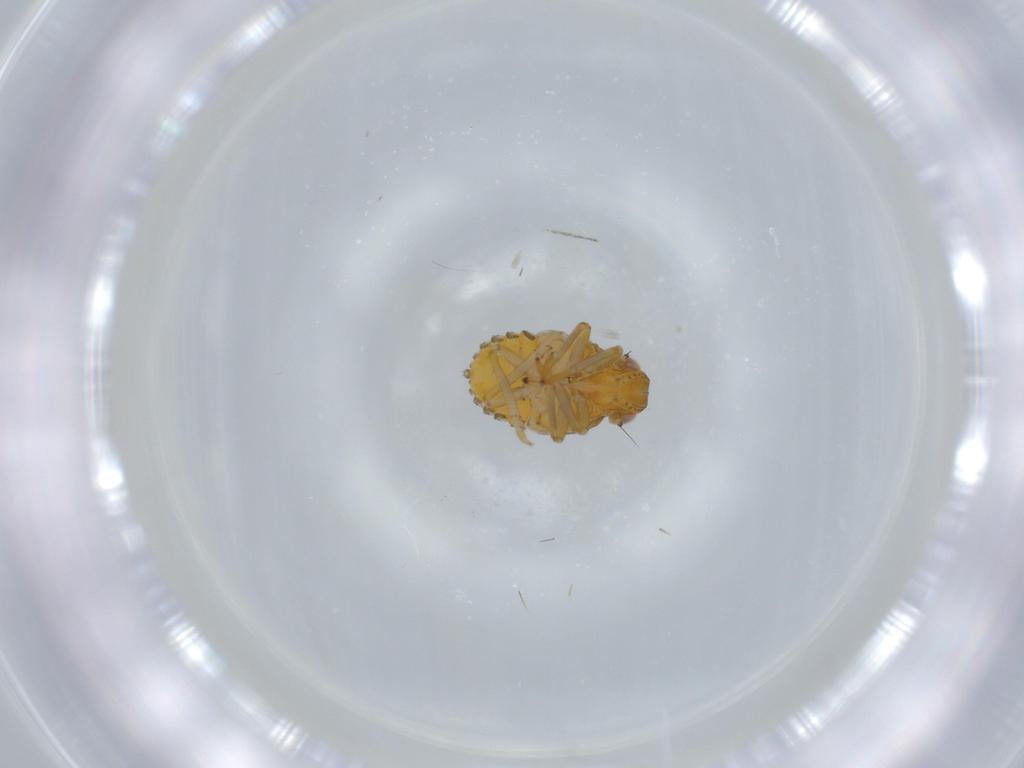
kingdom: Animalia
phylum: Arthropoda
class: Insecta
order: Hemiptera
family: Issidae
